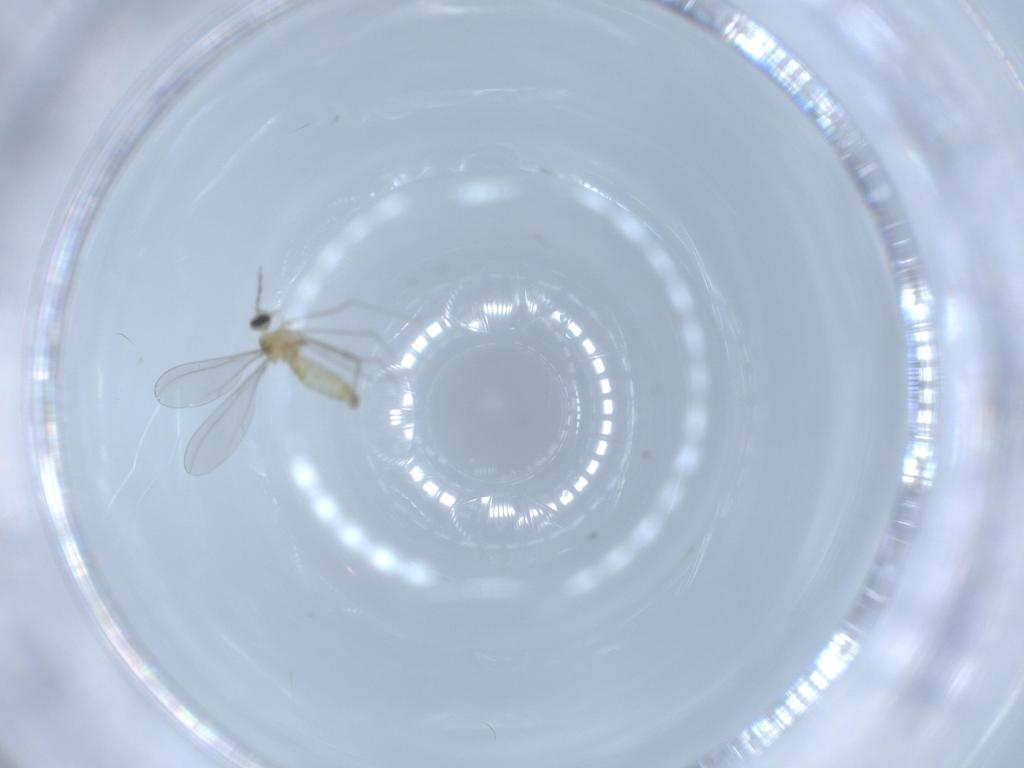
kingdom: Animalia
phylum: Arthropoda
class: Insecta
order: Diptera
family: Cecidomyiidae
